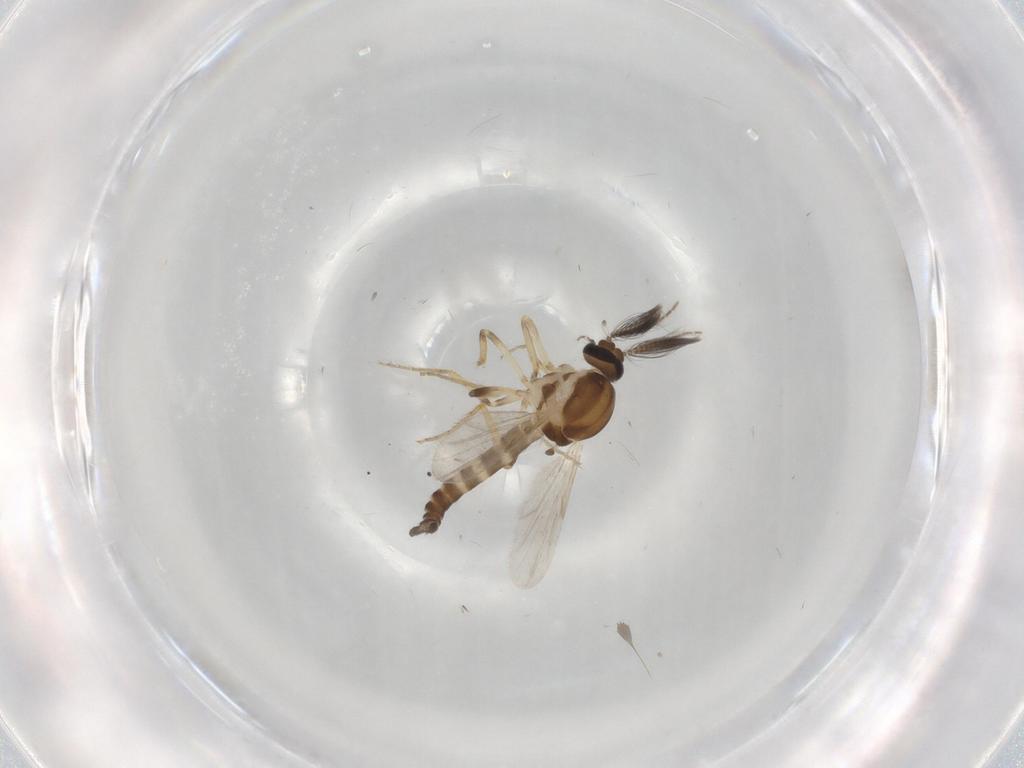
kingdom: Animalia
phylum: Arthropoda
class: Insecta
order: Diptera
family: Ceratopogonidae
